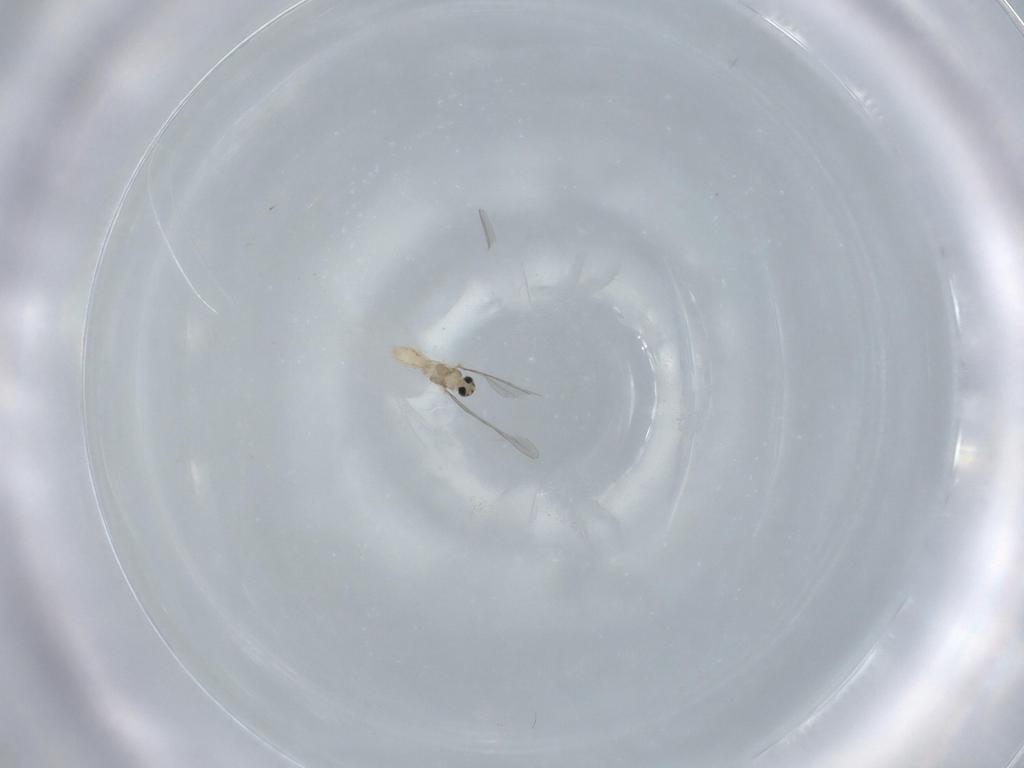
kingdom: Animalia
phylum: Arthropoda
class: Insecta
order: Diptera
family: Cecidomyiidae
